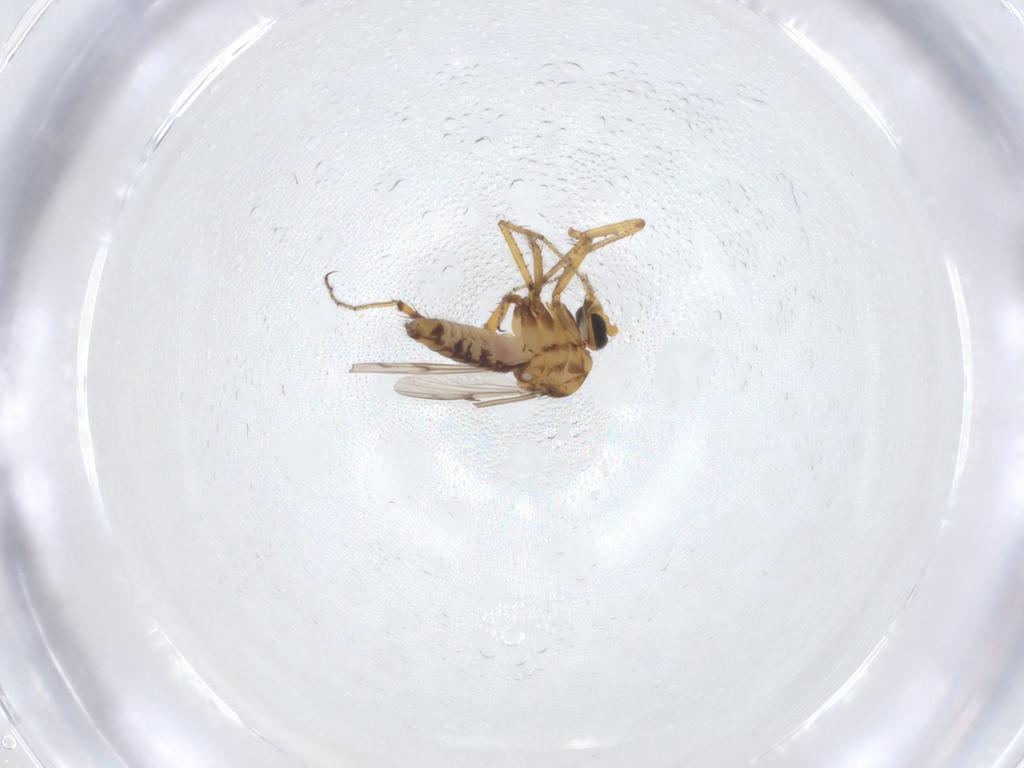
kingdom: Animalia
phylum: Arthropoda
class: Insecta
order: Diptera
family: Ceratopogonidae
